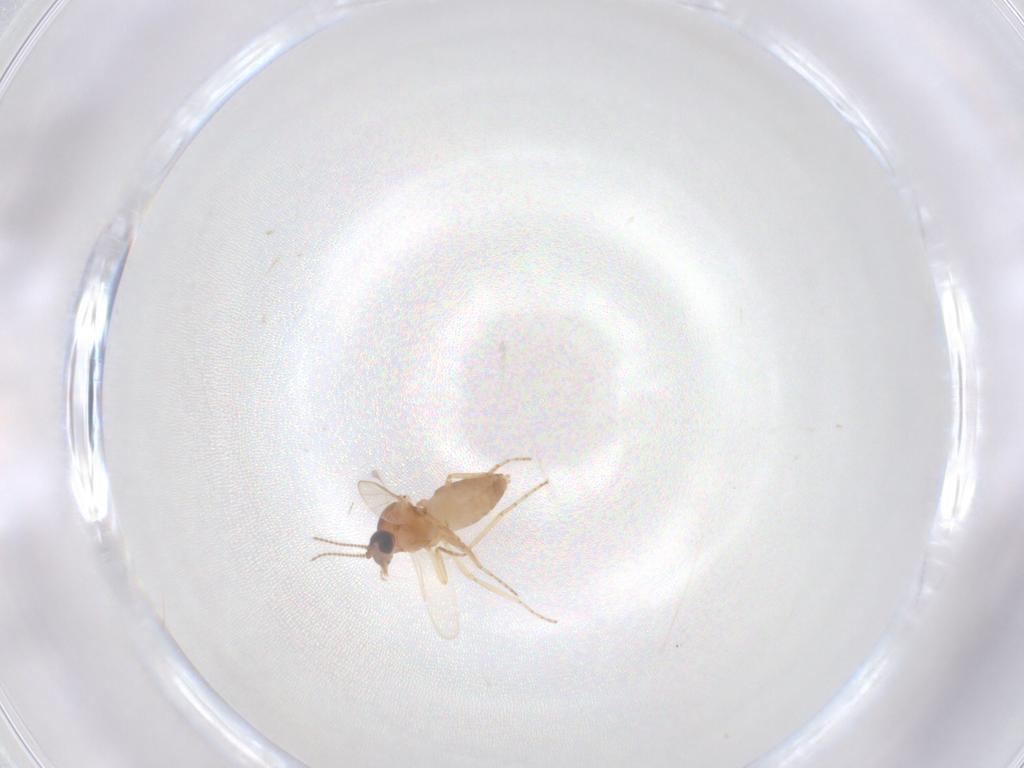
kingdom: Animalia
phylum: Arthropoda
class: Insecta
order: Diptera
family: Ceratopogonidae
